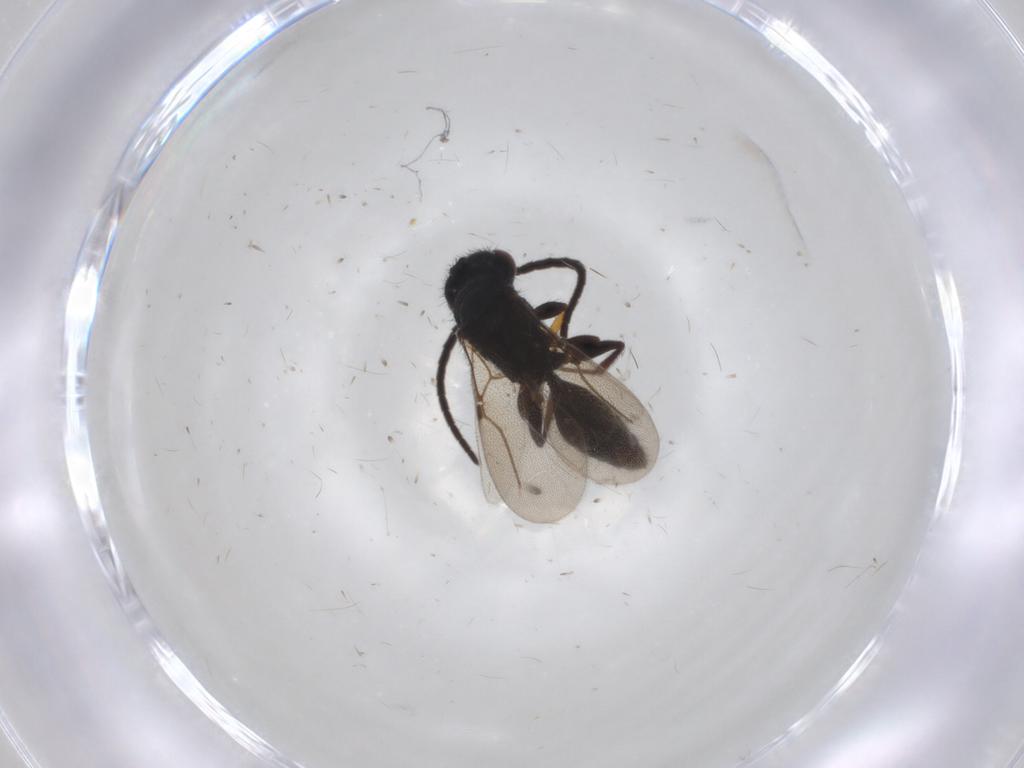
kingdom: Animalia
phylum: Arthropoda
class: Insecta
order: Hymenoptera
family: Bethylidae
